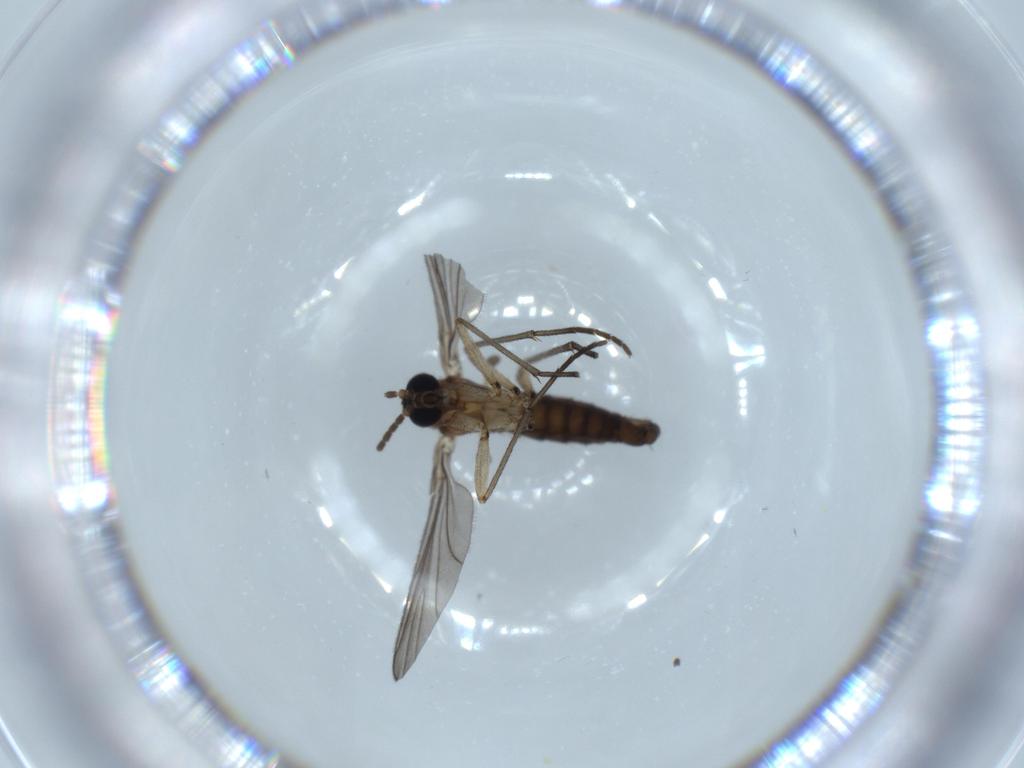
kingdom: Animalia
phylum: Arthropoda
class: Insecta
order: Diptera
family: Sciaridae
